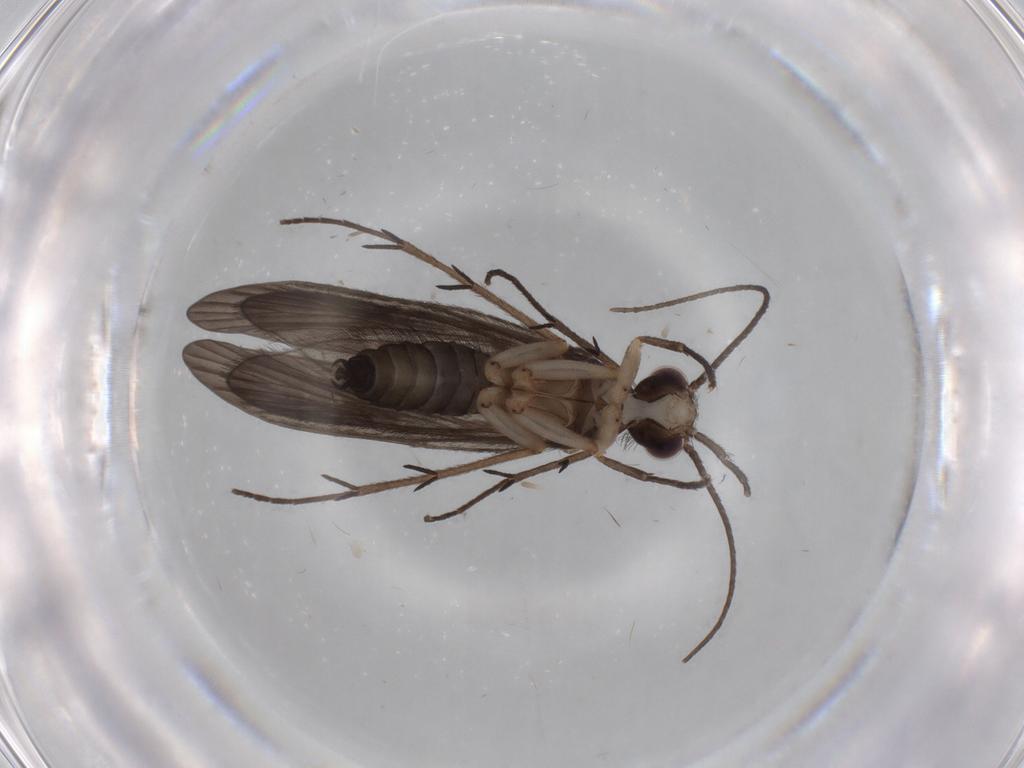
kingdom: Animalia
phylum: Arthropoda
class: Insecta
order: Trichoptera
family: Philopotamidae
